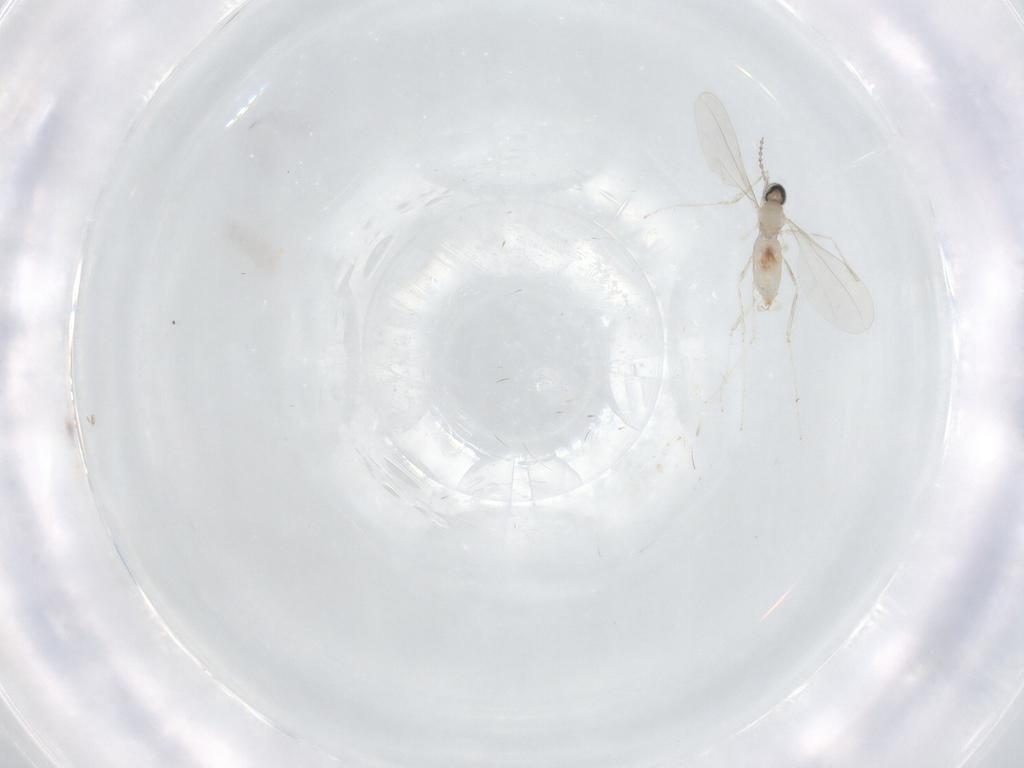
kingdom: Animalia
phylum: Arthropoda
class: Insecta
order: Diptera
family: Cecidomyiidae
